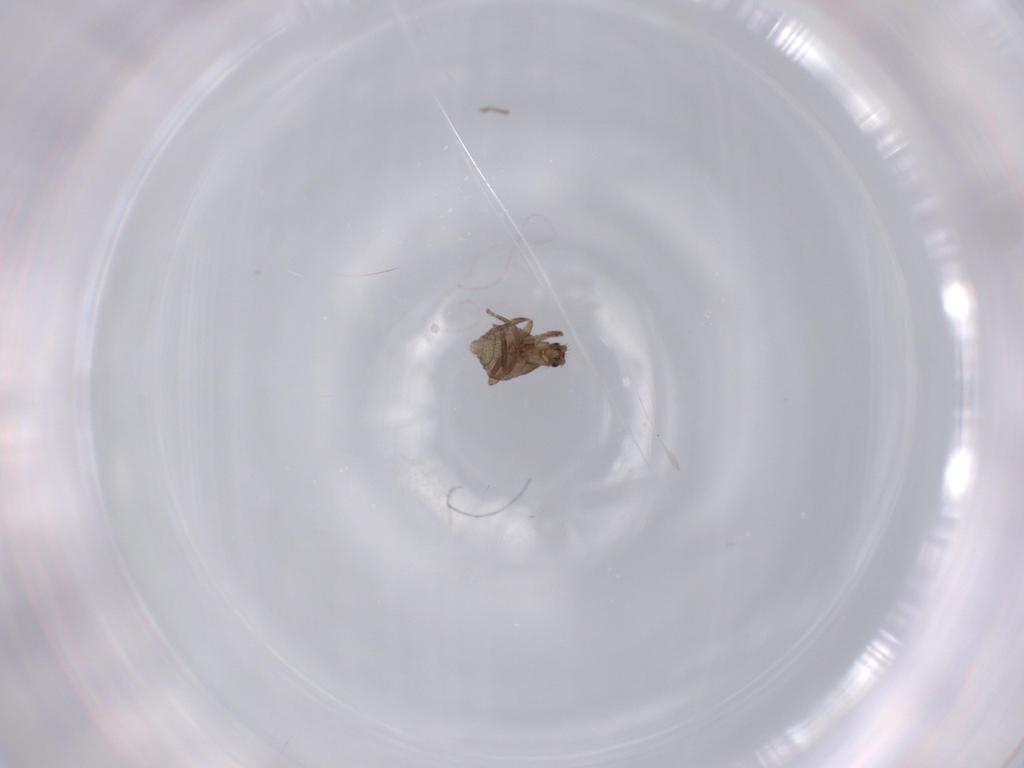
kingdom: Animalia
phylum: Arthropoda
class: Insecta
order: Diptera
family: Sciaridae
